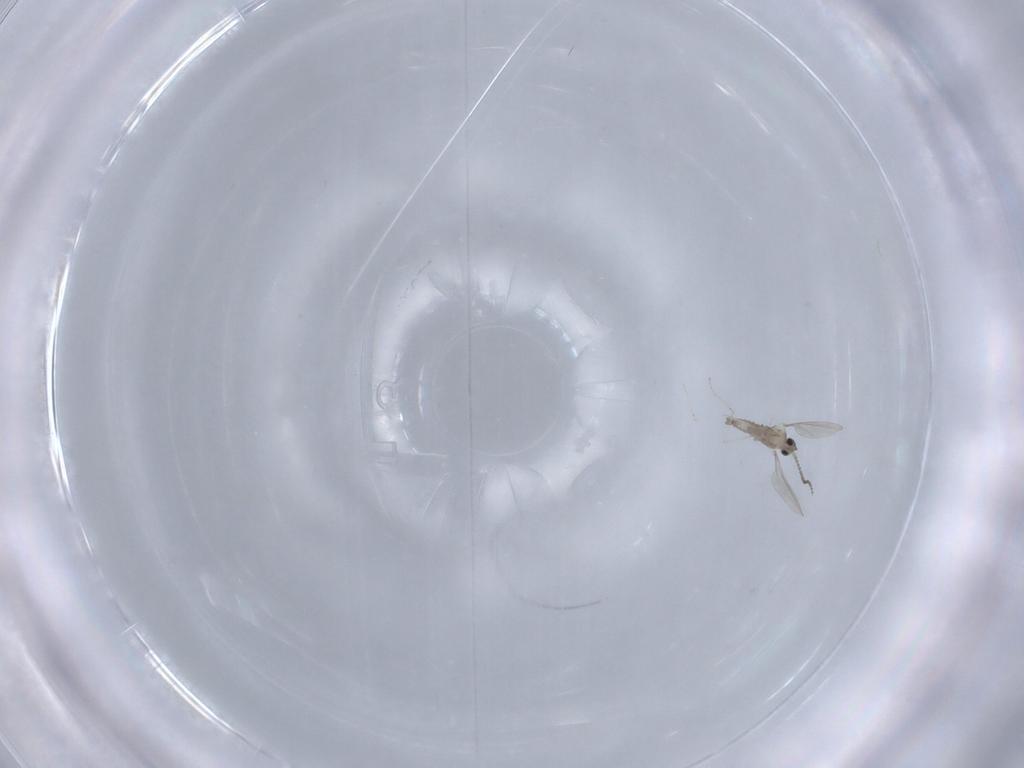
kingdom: Animalia
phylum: Arthropoda
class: Insecta
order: Diptera
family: Cecidomyiidae
